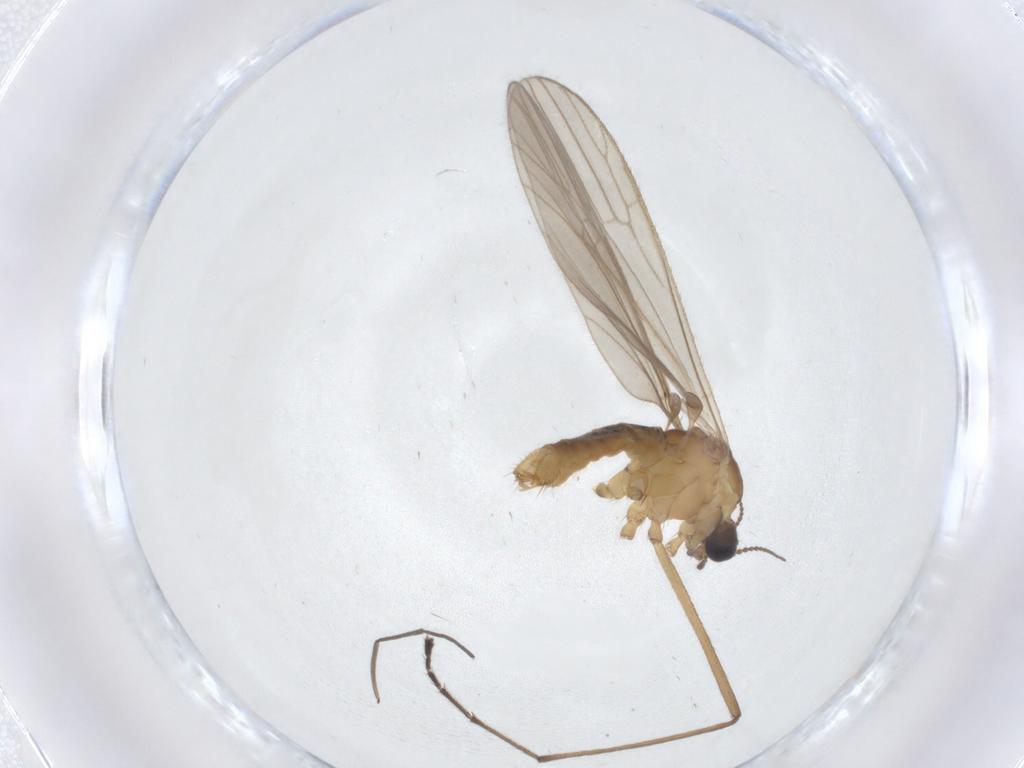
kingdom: Animalia
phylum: Arthropoda
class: Insecta
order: Diptera
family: Limoniidae
